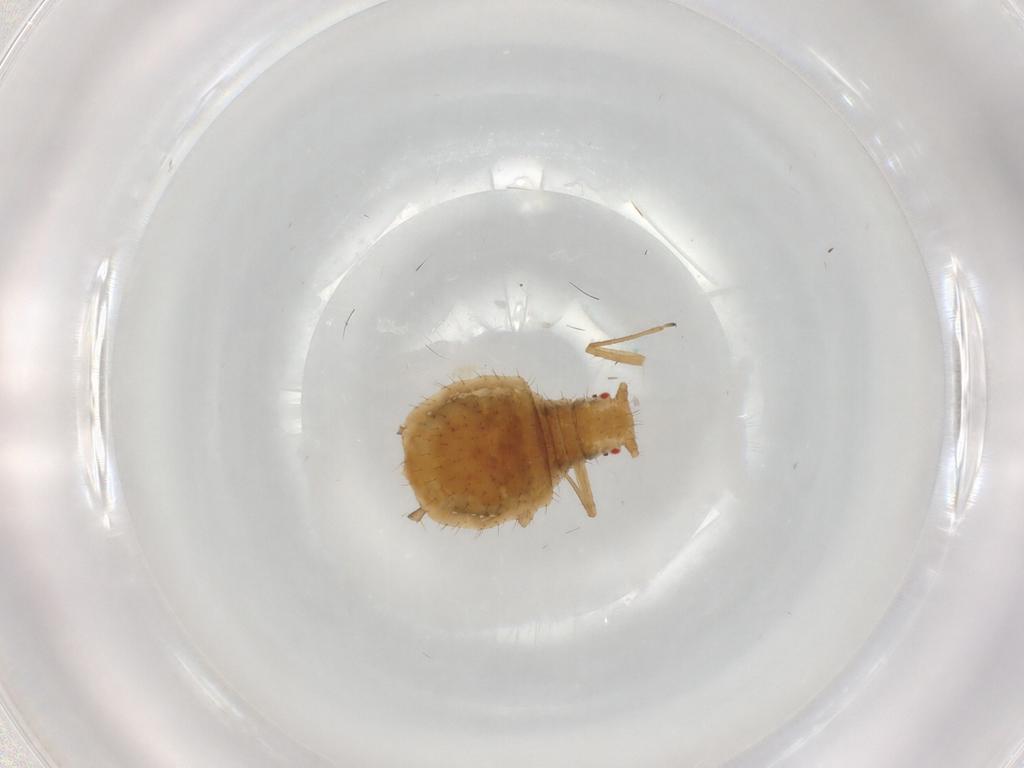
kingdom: Animalia
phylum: Arthropoda
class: Insecta
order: Hemiptera
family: Aphididae
